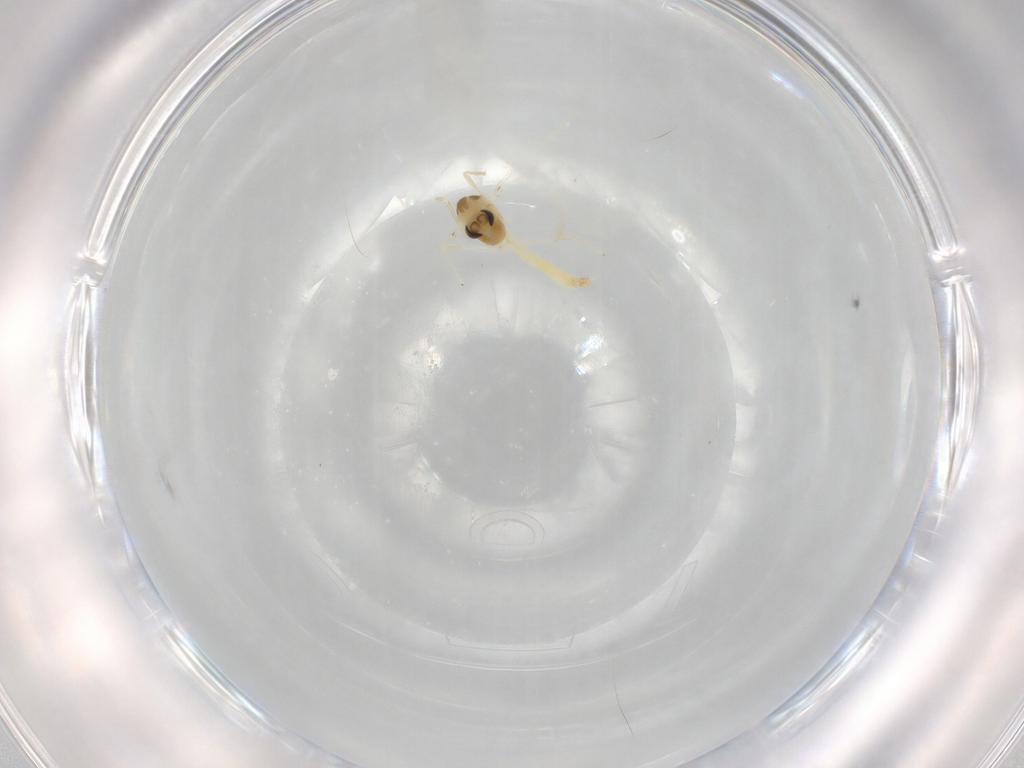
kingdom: Animalia
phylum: Arthropoda
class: Insecta
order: Diptera
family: Chironomidae
